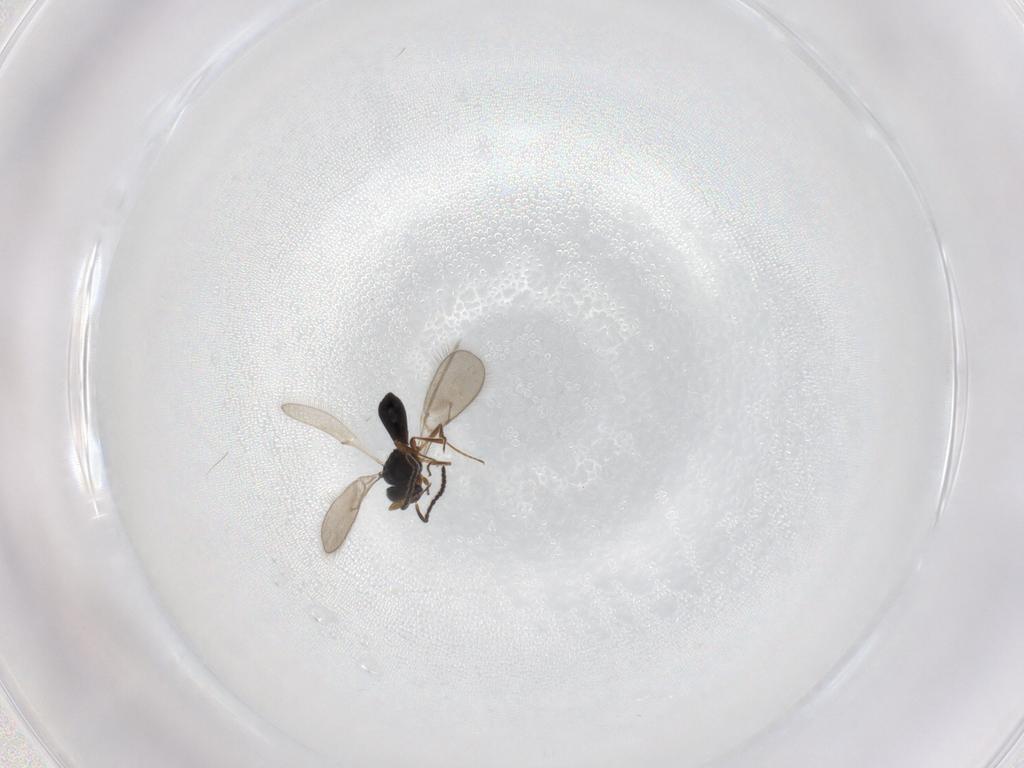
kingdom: Animalia
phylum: Arthropoda
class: Insecta
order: Hymenoptera
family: Scelionidae
